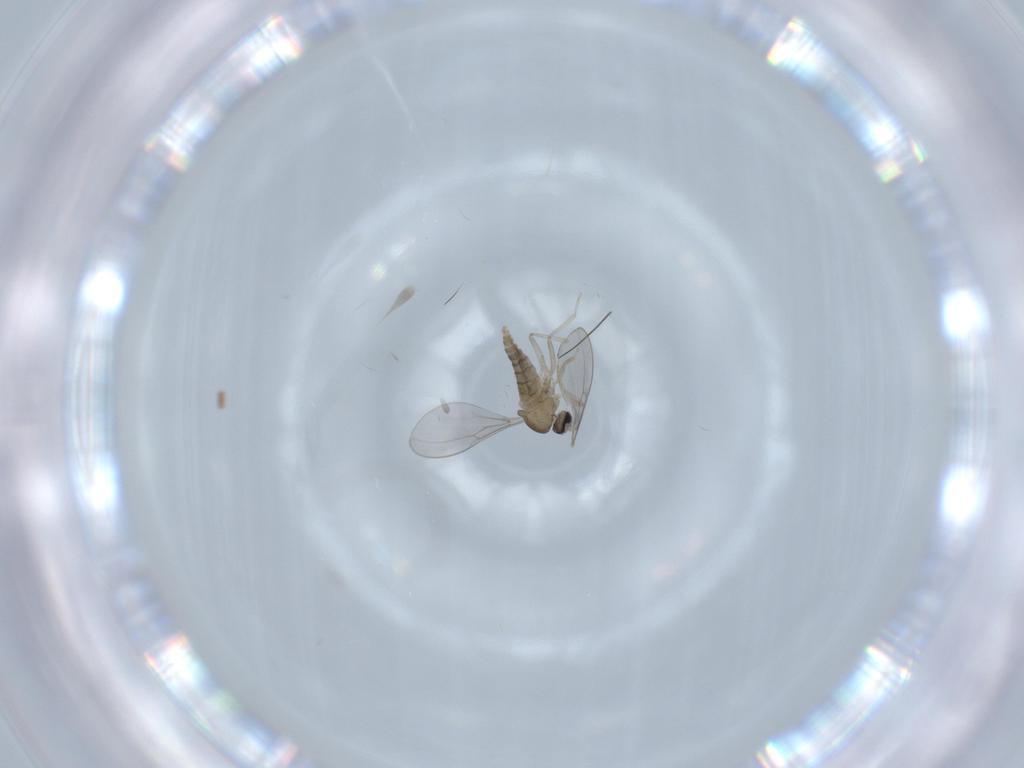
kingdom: Animalia
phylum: Arthropoda
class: Insecta
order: Diptera
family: Cecidomyiidae
